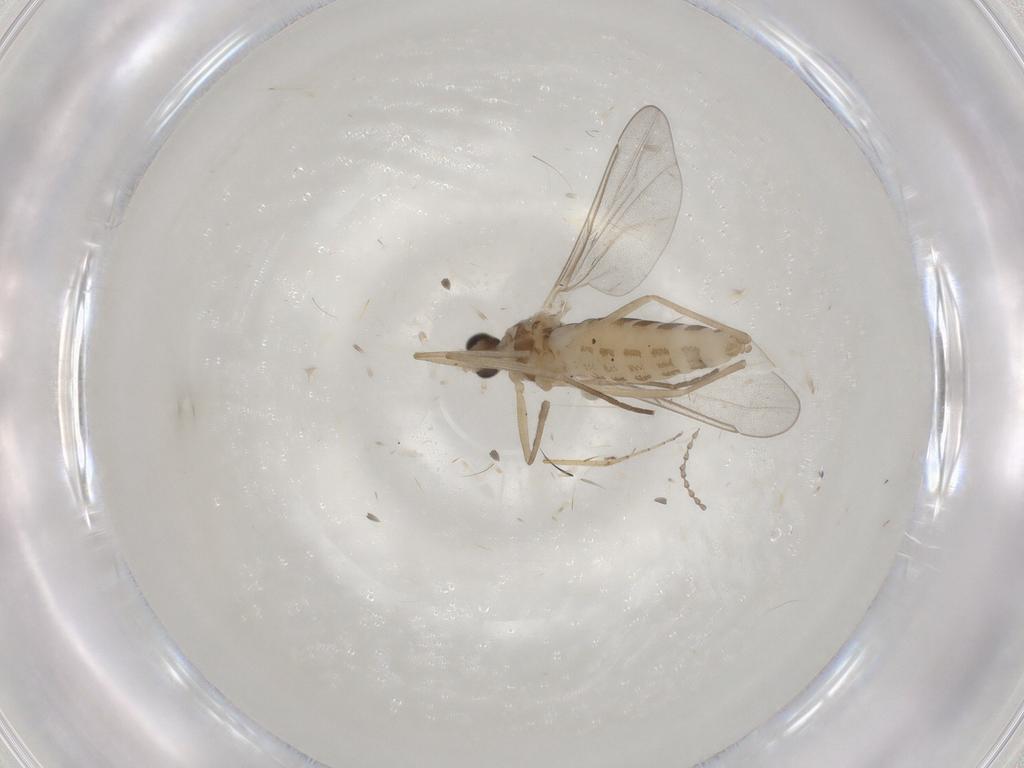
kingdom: Animalia
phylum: Arthropoda
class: Insecta
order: Diptera
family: Cecidomyiidae
